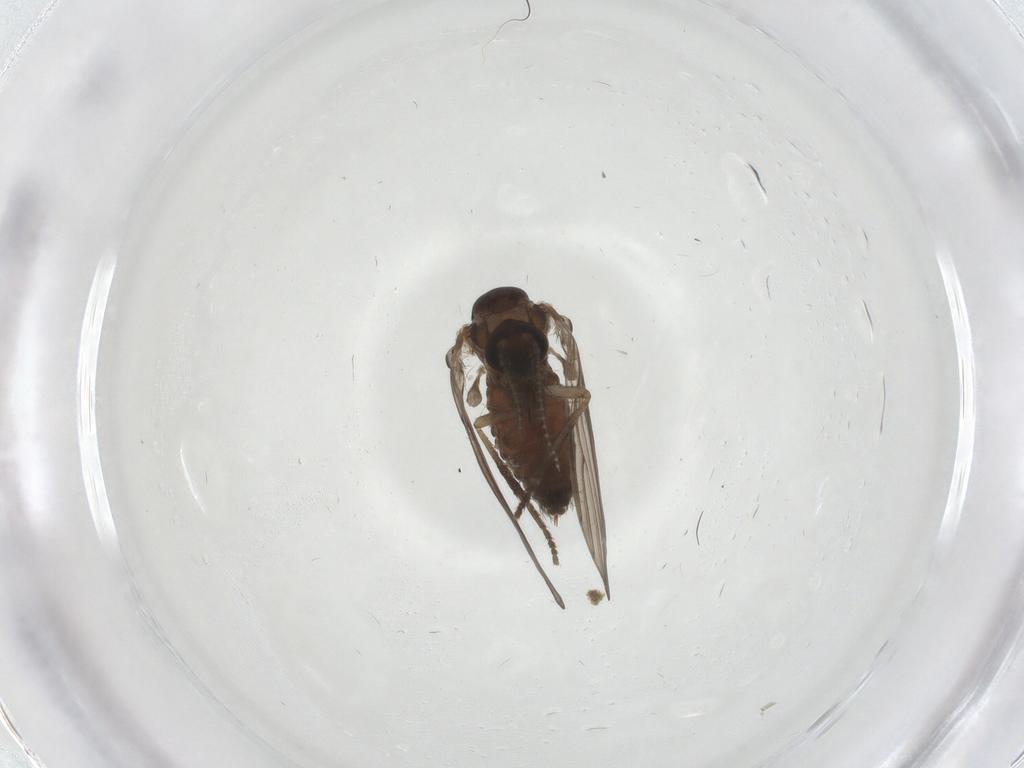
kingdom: Animalia
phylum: Arthropoda
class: Insecta
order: Diptera
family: Psychodidae
